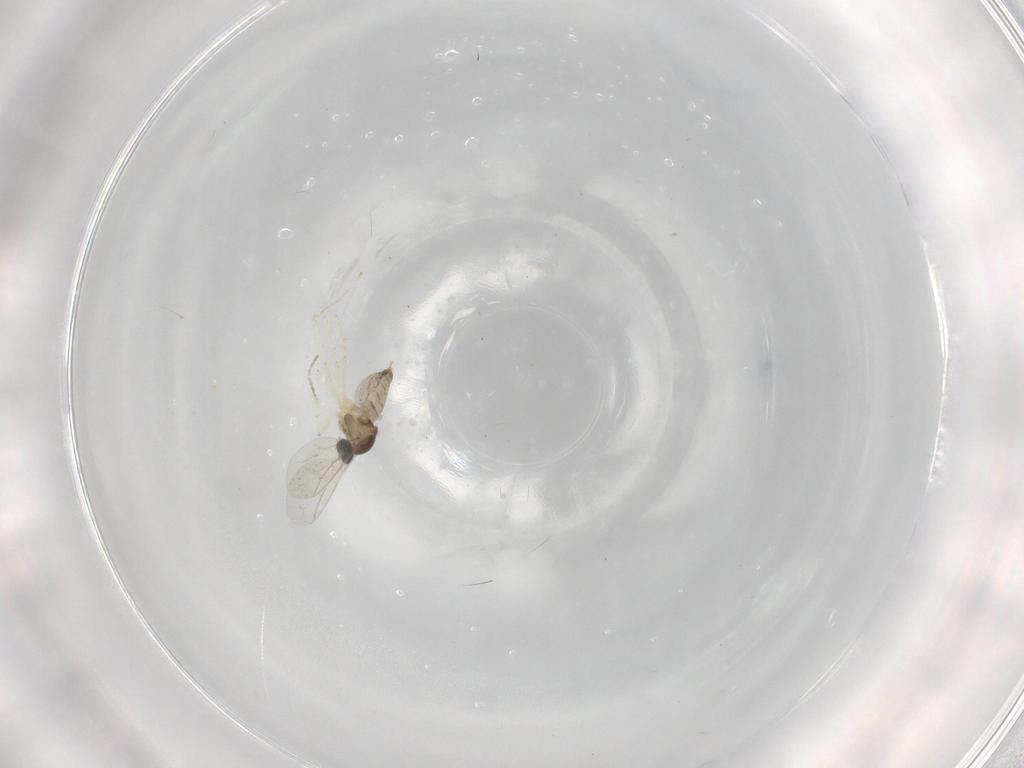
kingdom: Animalia
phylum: Arthropoda
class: Insecta
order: Diptera
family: Cecidomyiidae
